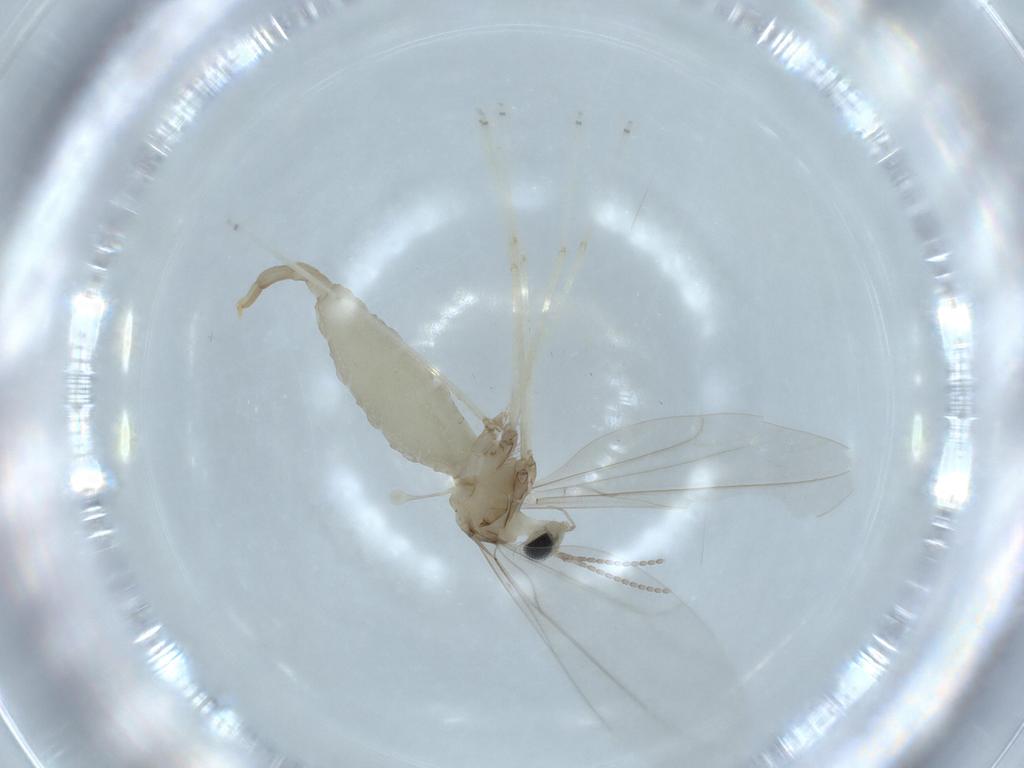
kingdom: Animalia
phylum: Arthropoda
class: Insecta
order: Diptera
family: Cecidomyiidae
